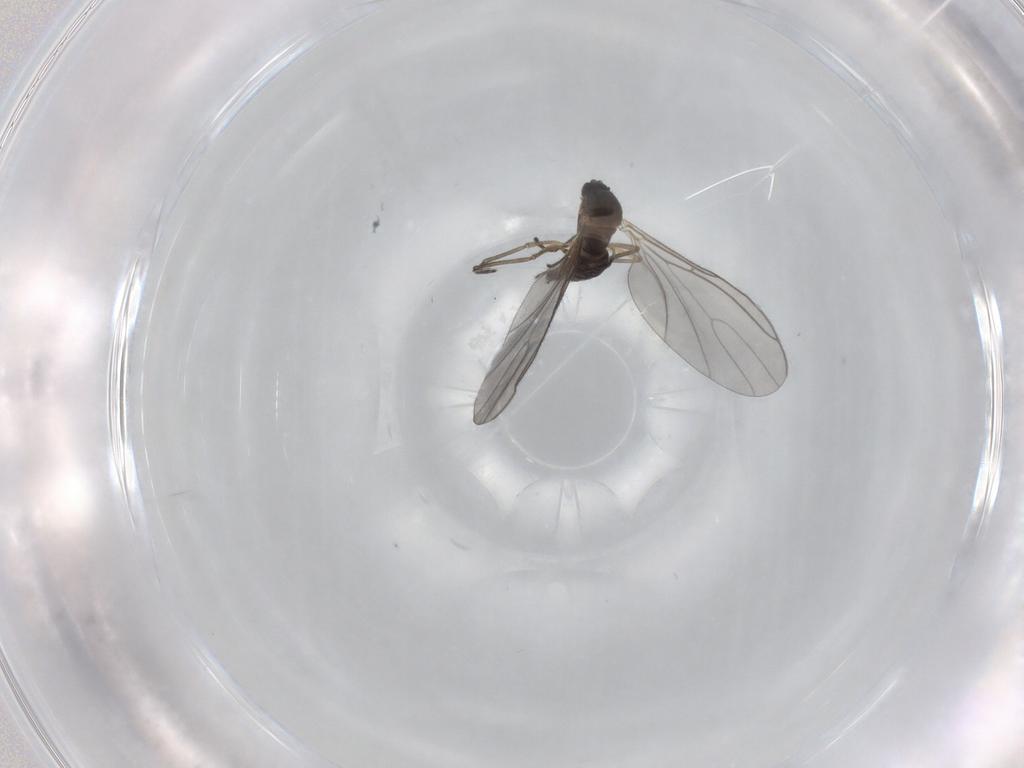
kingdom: Animalia
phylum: Arthropoda
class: Insecta
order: Diptera
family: Sciaridae
